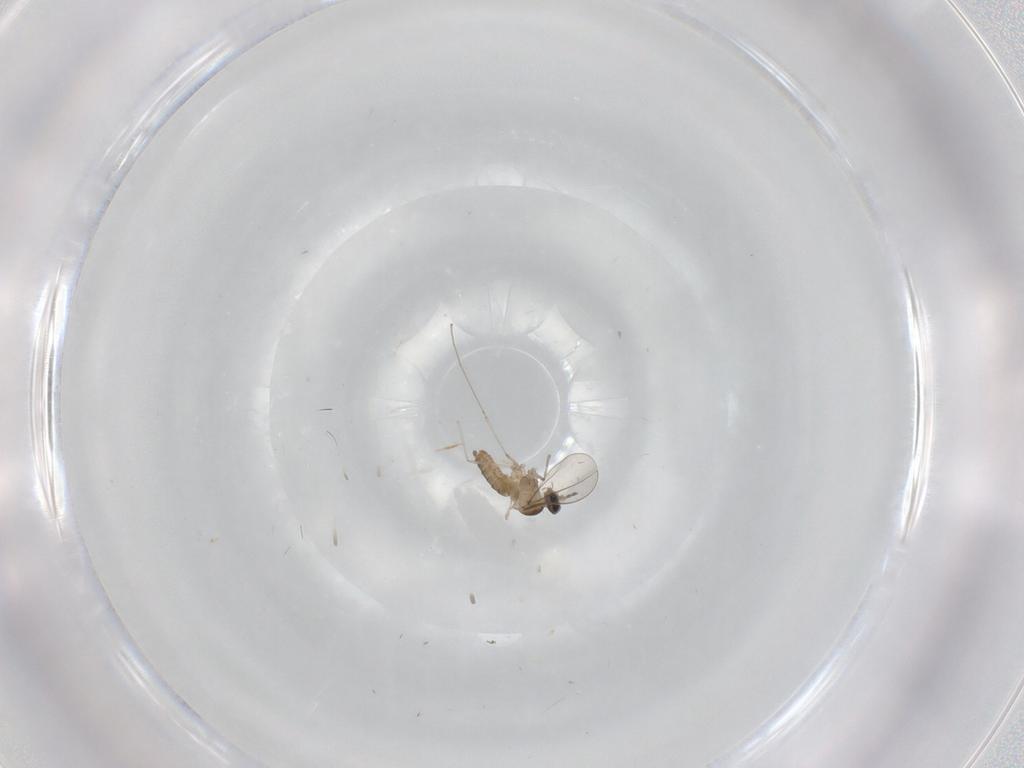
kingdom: Animalia
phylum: Arthropoda
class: Insecta
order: Diptera
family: Cecidomyiidae
